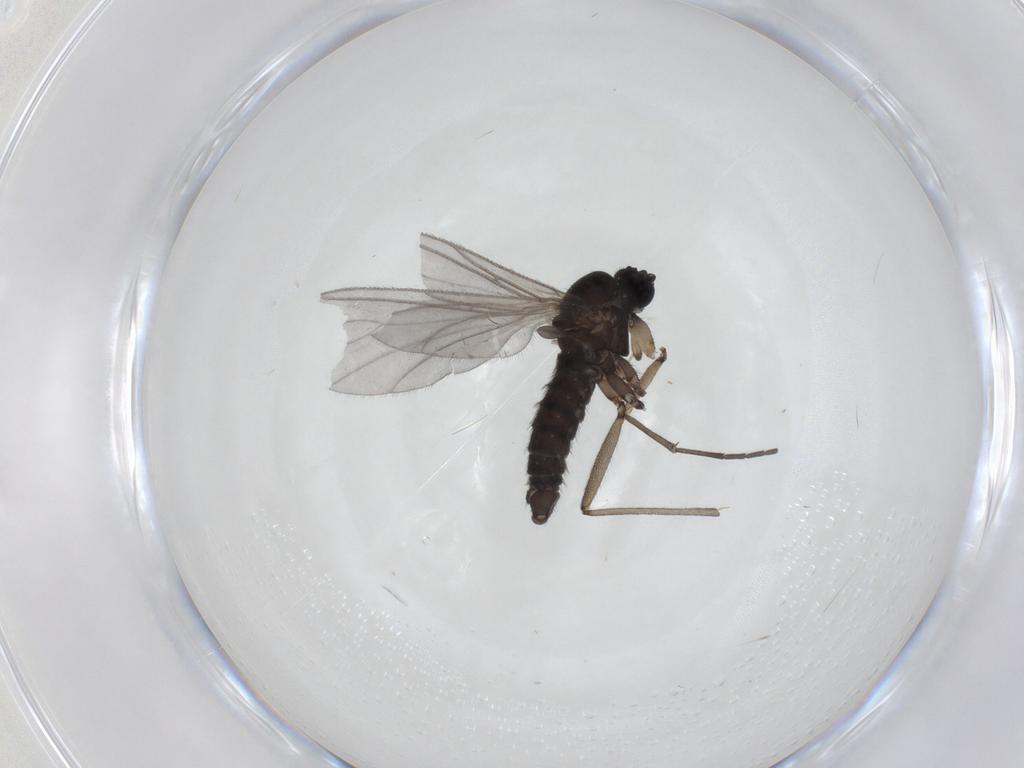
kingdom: Animalia
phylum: Arthropoda
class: Insecta
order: Diptera
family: Sciaridae
